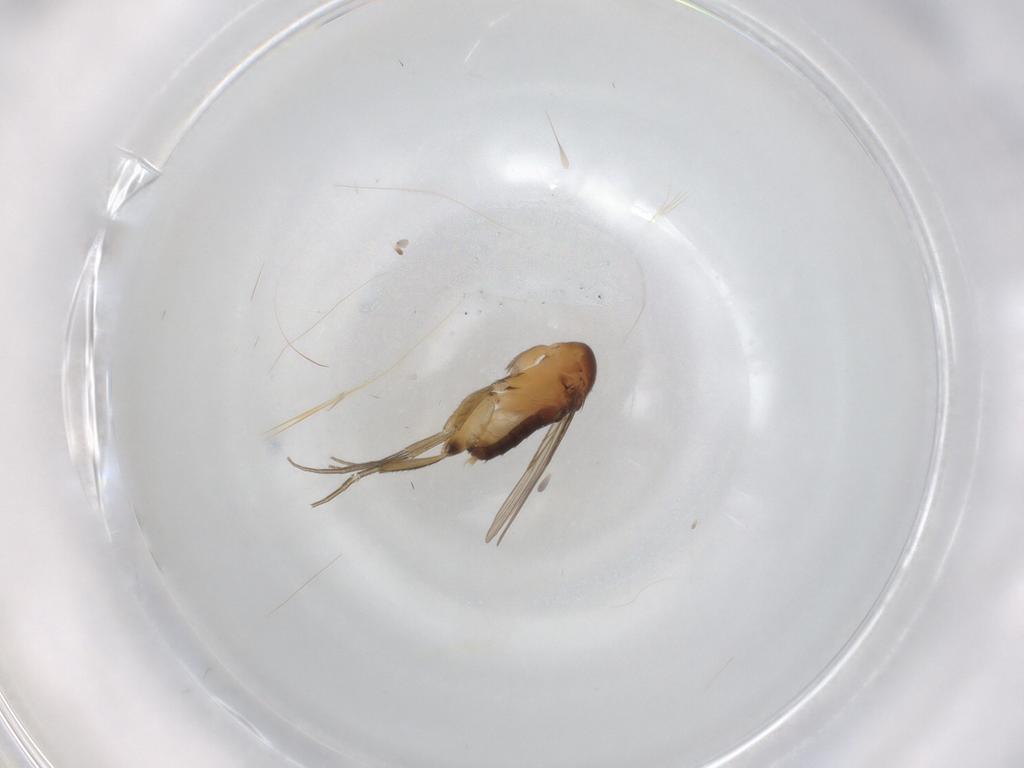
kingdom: Animalia
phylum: Arthropoda
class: Insecta
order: Diptera
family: Phoridae
